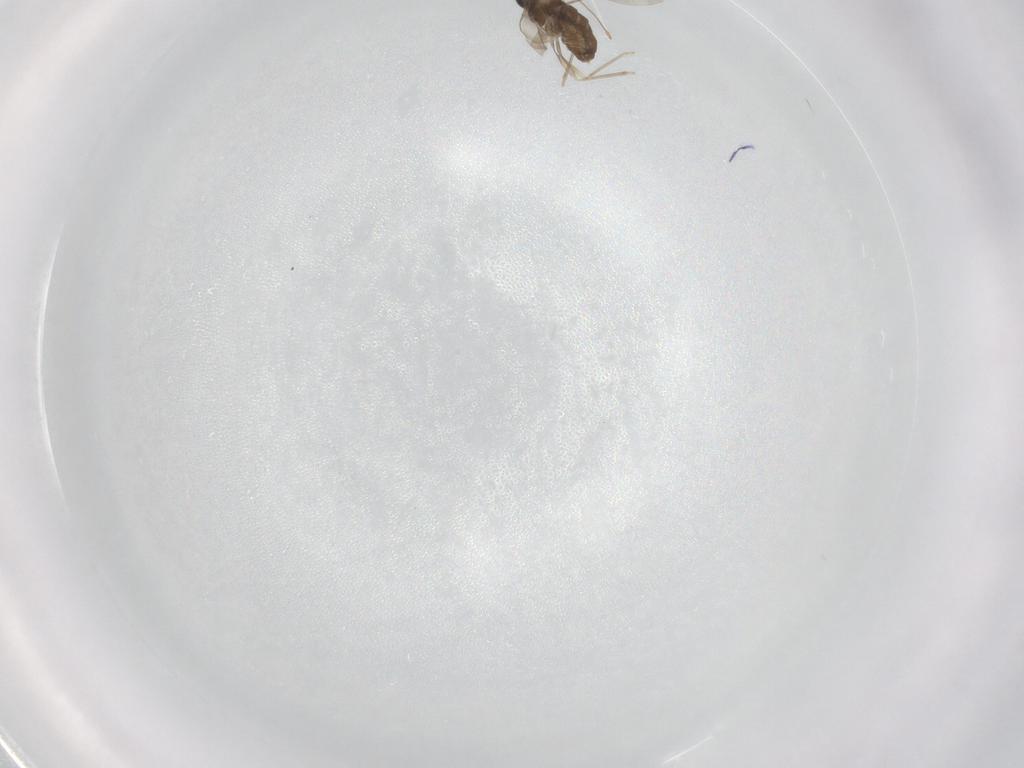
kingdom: Animalia
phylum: Arthropoda
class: Insecta
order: Diptera
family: Cecidomyiidae
